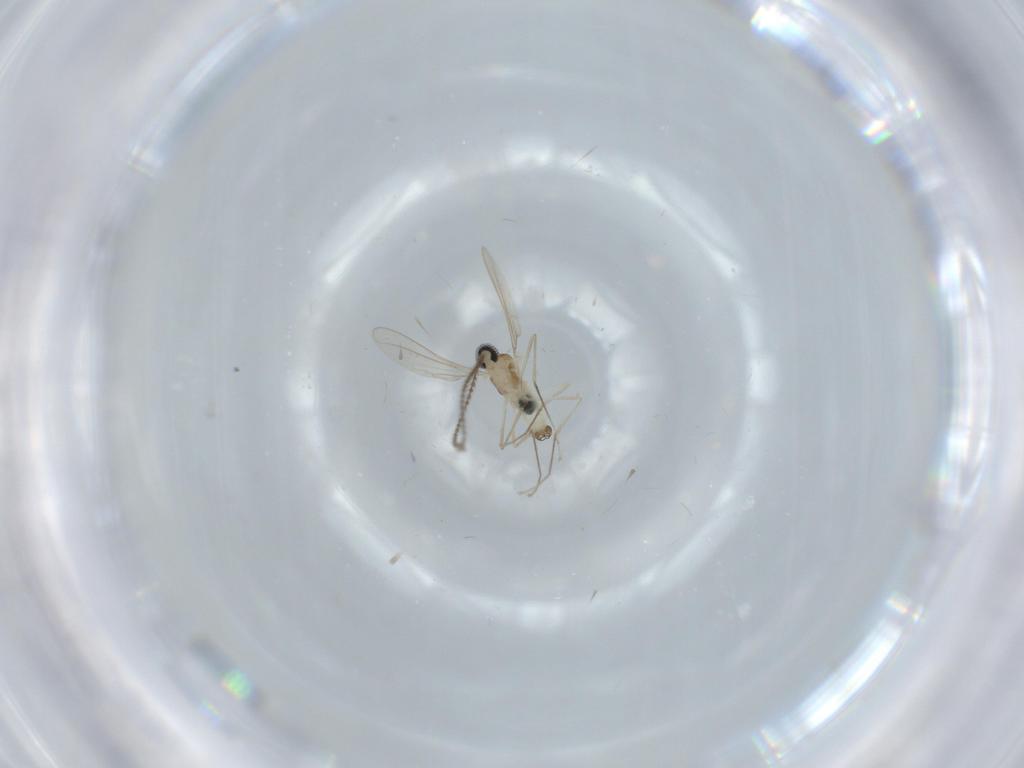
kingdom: Animalia
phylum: Arthropoda
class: Insecta
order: Diptera
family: Cecidomyiidae
